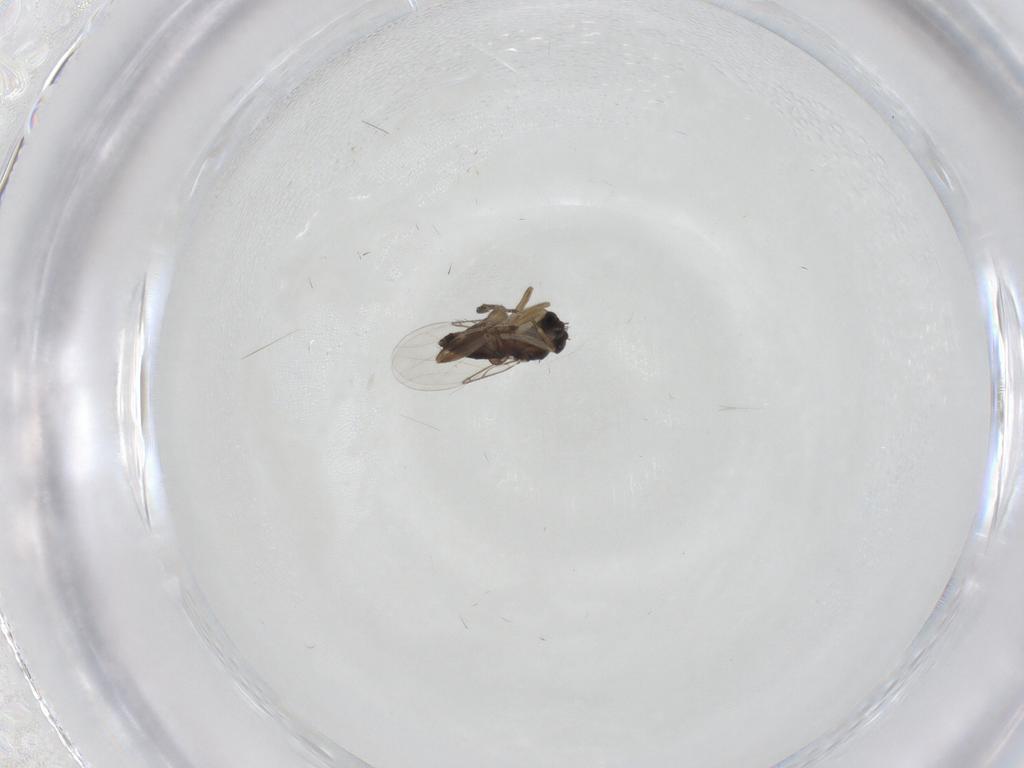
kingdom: Animalia
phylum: Arthropoda
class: Insecta
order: Diptera
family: Phoridae
